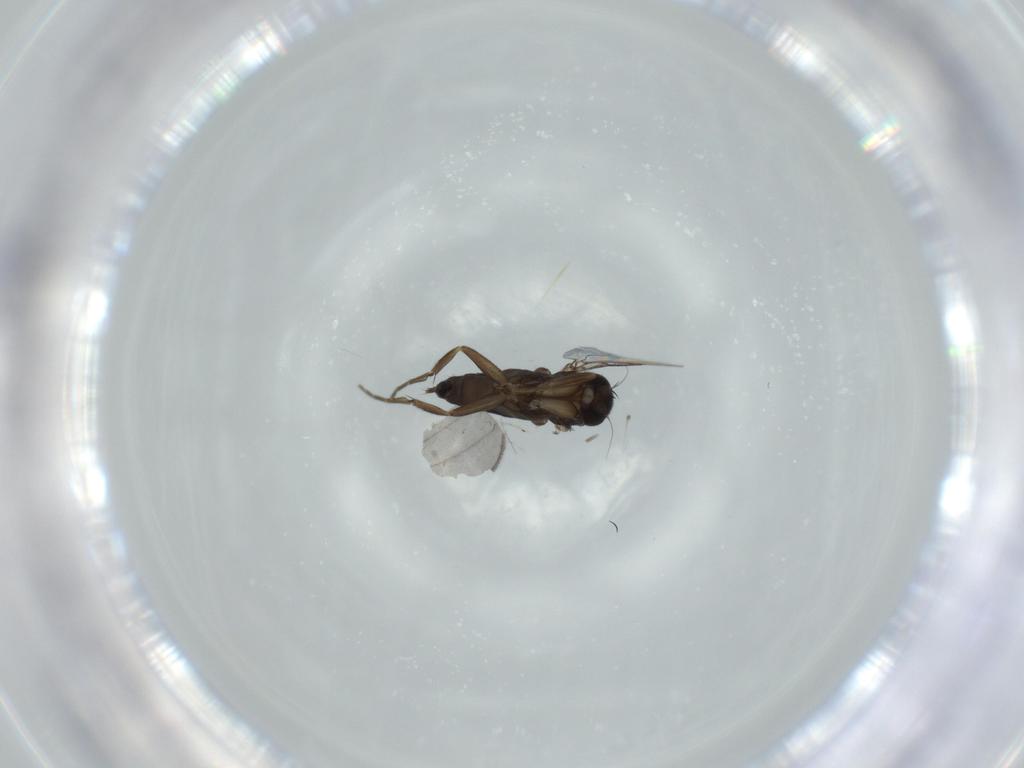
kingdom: Animalia
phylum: Arthropoda
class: Insecta
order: Diptera
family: Phoridae
